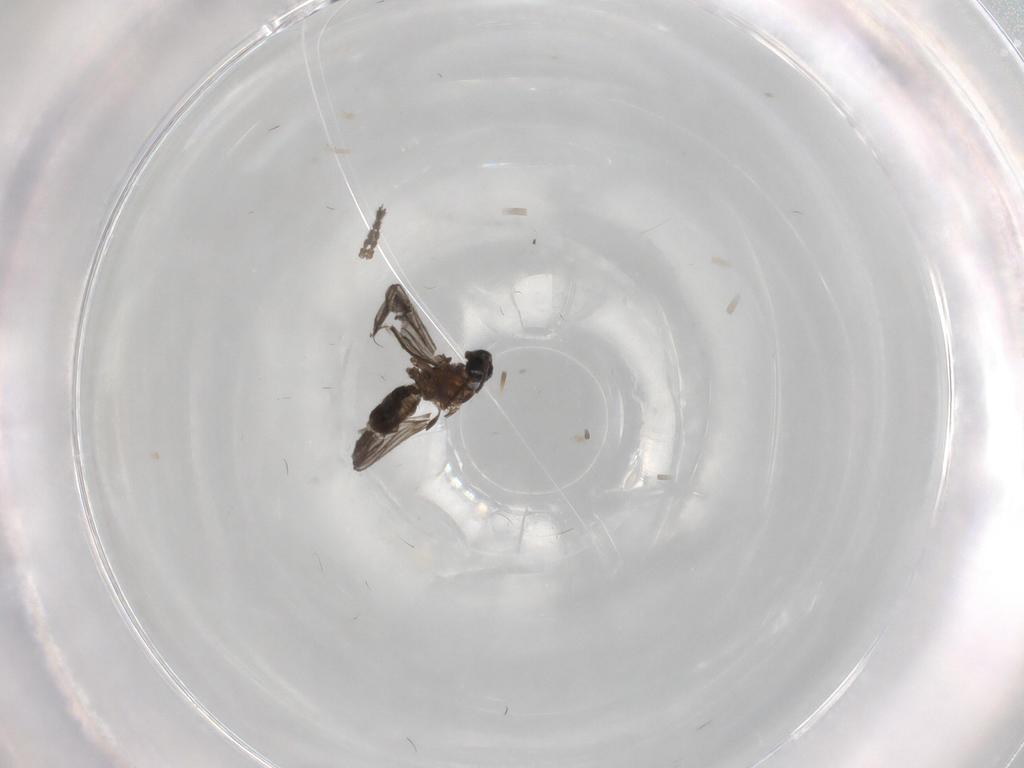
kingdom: Animalia
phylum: Arthropoda
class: Insecta
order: Diptera
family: Sciaridae
